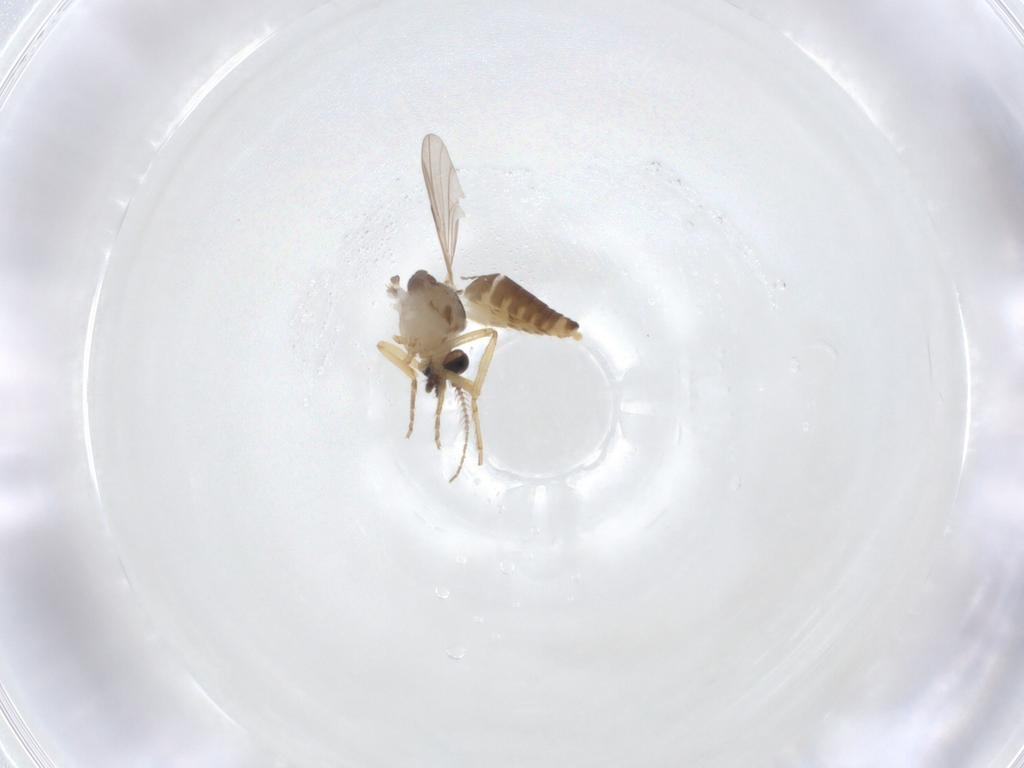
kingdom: Animalia
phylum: Arthropoda
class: Insecta
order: Diptera
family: Ceratopogonidae
